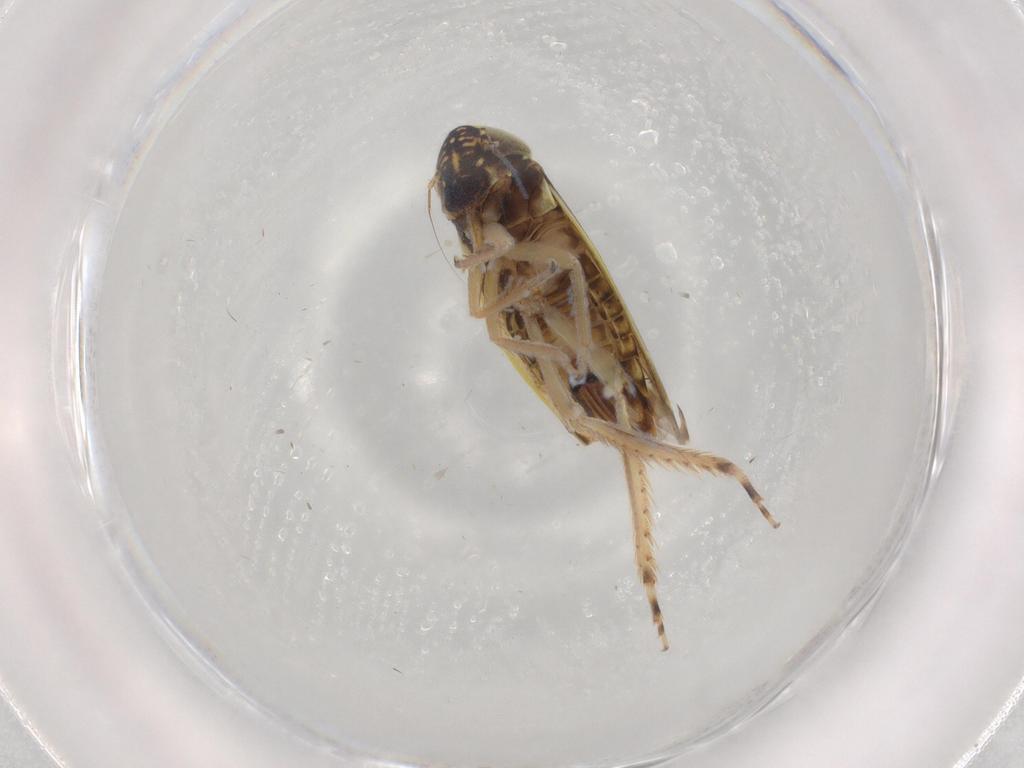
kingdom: Animalia
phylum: Arthropoda
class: Insecta
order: Hemiptera
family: Cicadellidae
